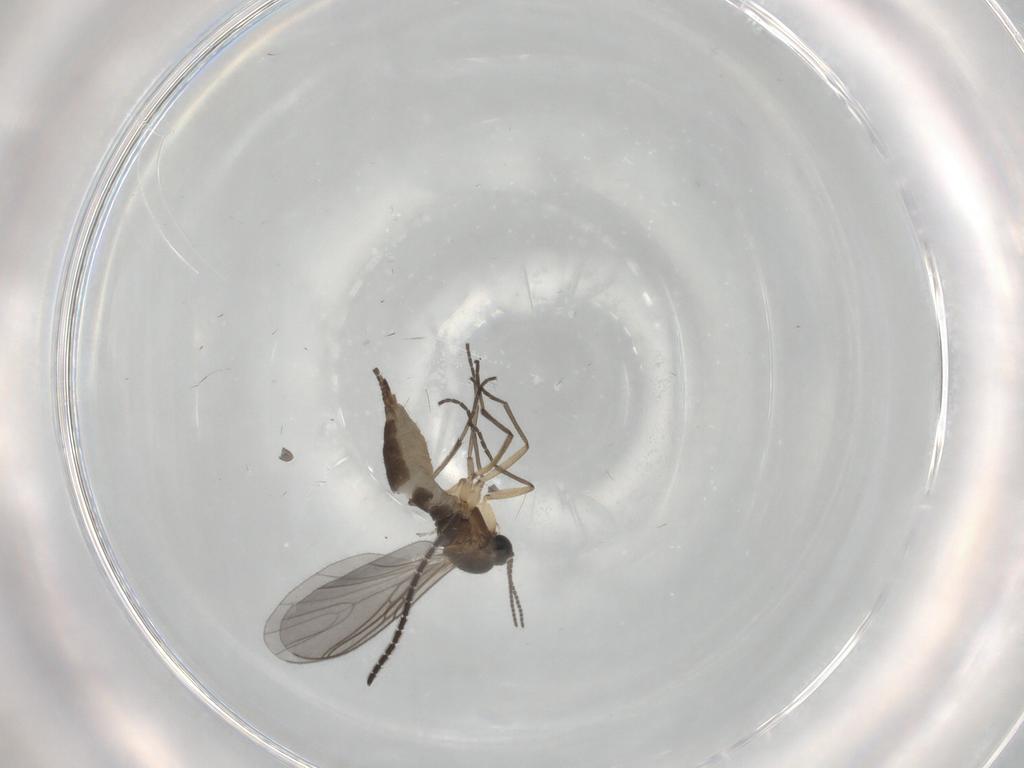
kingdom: Animalia
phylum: Arthropoda
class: Insecta
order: Diptera
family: Sciaridae
